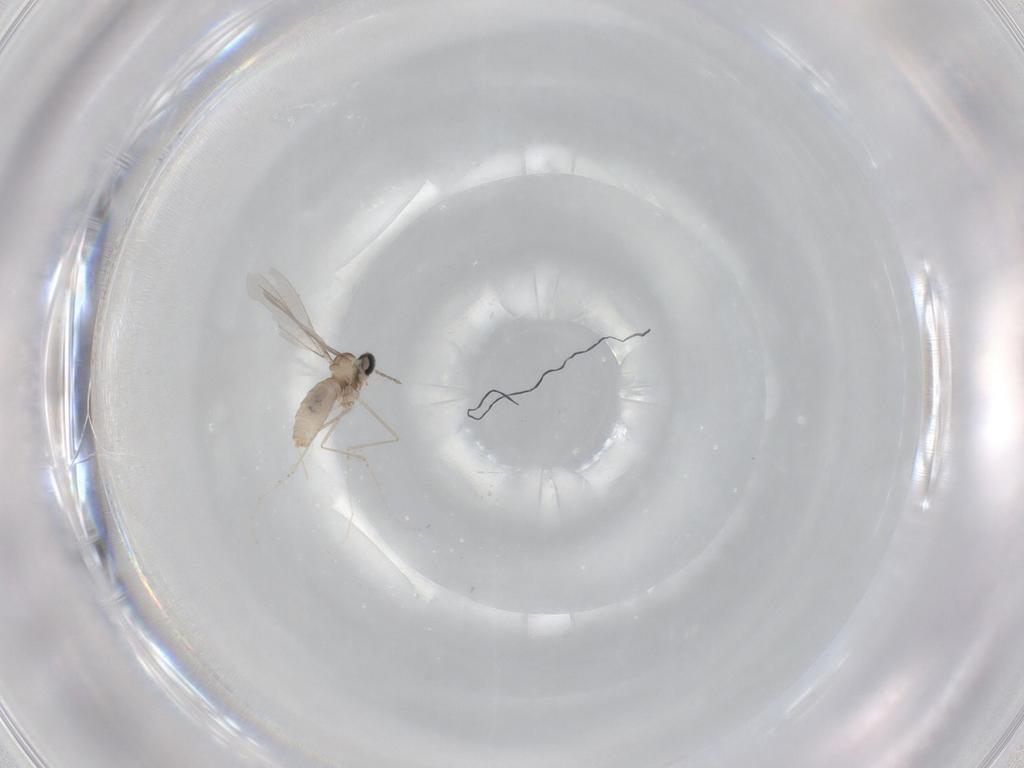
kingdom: Animalia
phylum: Arthropoda
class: Insecta
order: Diptera
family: Cecidomyiidae
